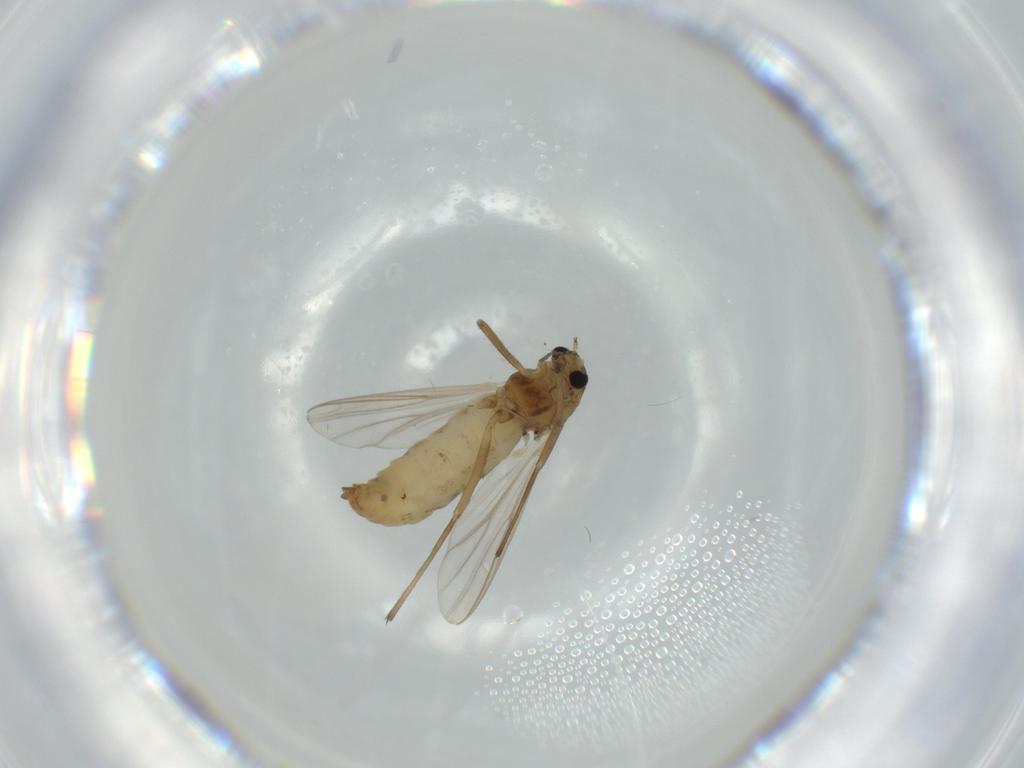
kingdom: Animalia
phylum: Arthropoda
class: Insecta
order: Diptera
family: Chironomidae
